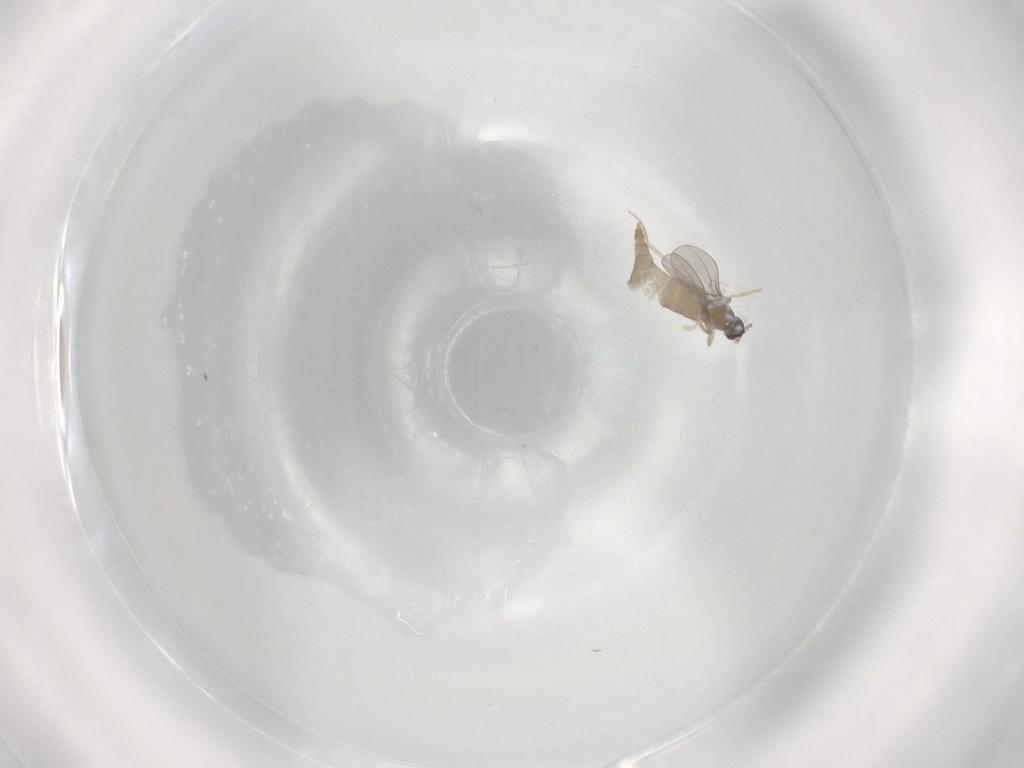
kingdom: Animalia
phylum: Arthropoda
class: Insecta
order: Diptera
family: Cecidomyiidae
